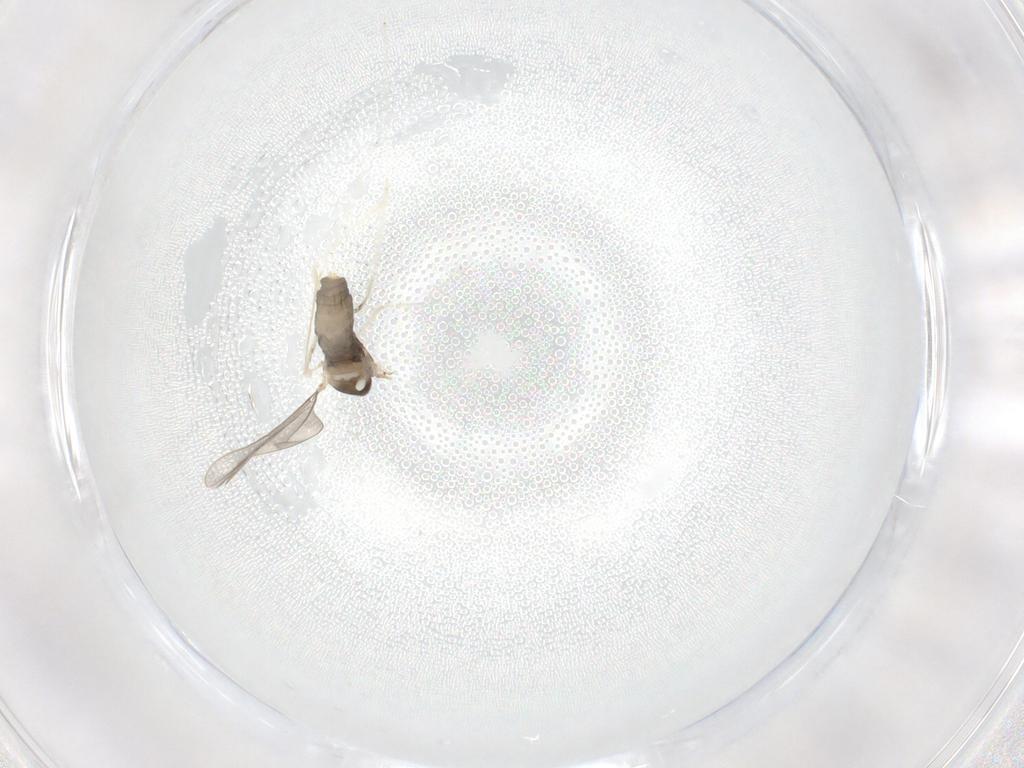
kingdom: Animalia
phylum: Arthropoda
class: Insecta
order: Diptera
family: Cecidomyiidae
